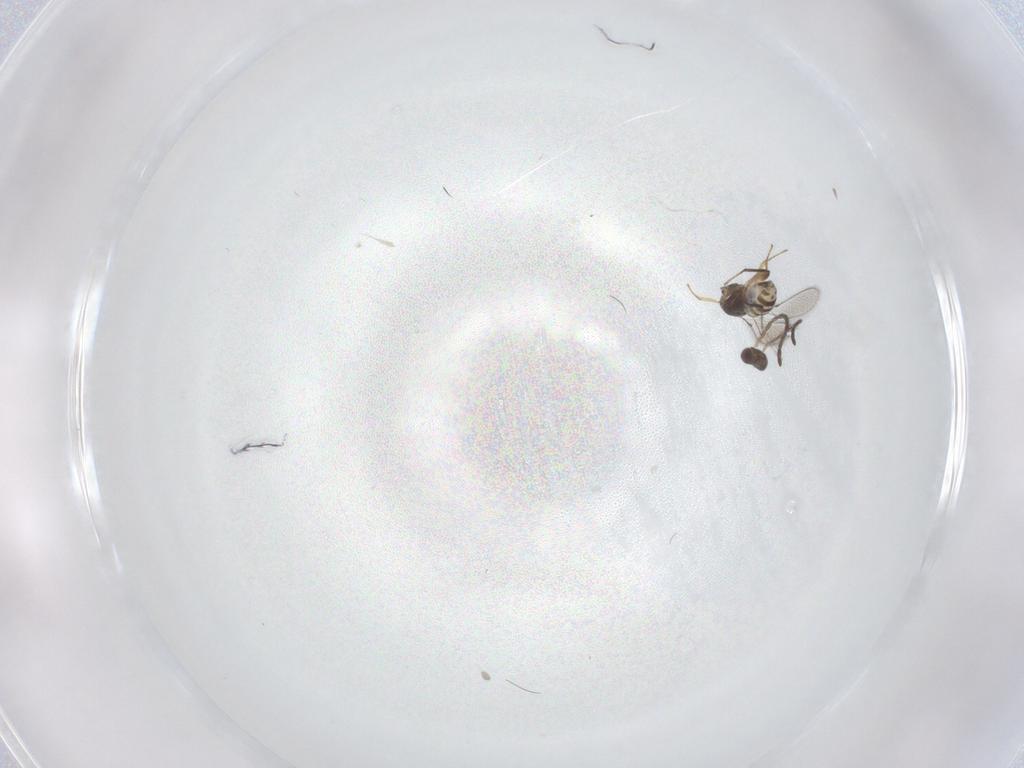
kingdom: Animalia
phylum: Arthropoda
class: Insecta
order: Hymenoptera
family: Mymaridae
